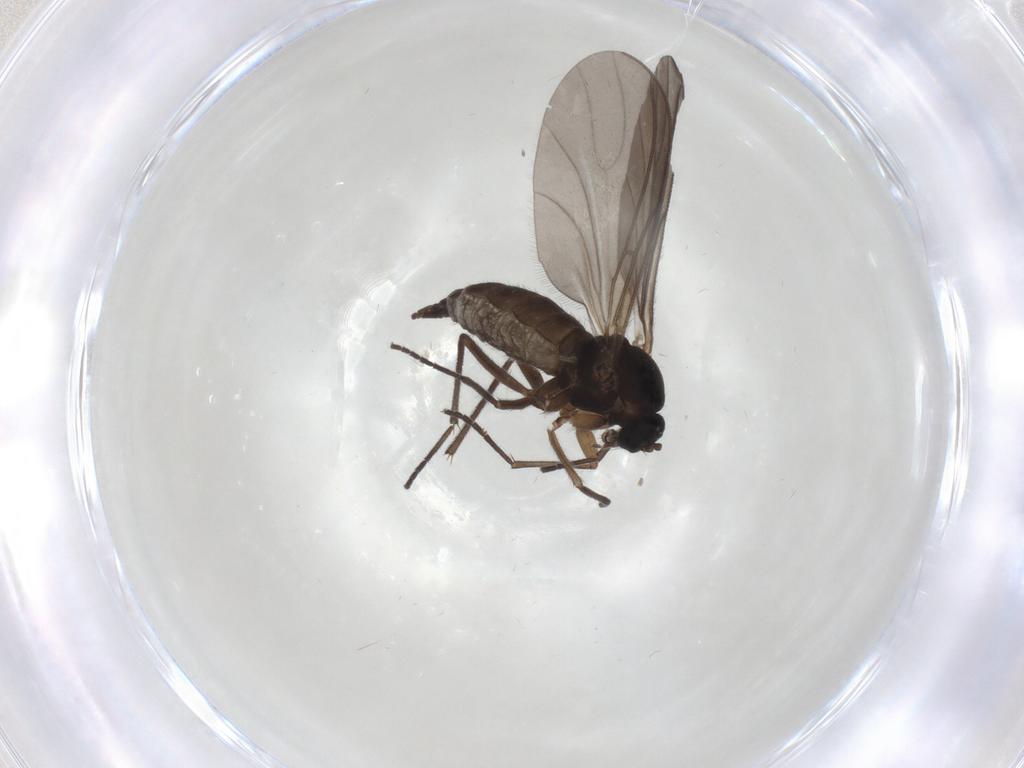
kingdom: Animalia
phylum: Arthropoda
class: Insecta
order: Diptera
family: Sciaridae
